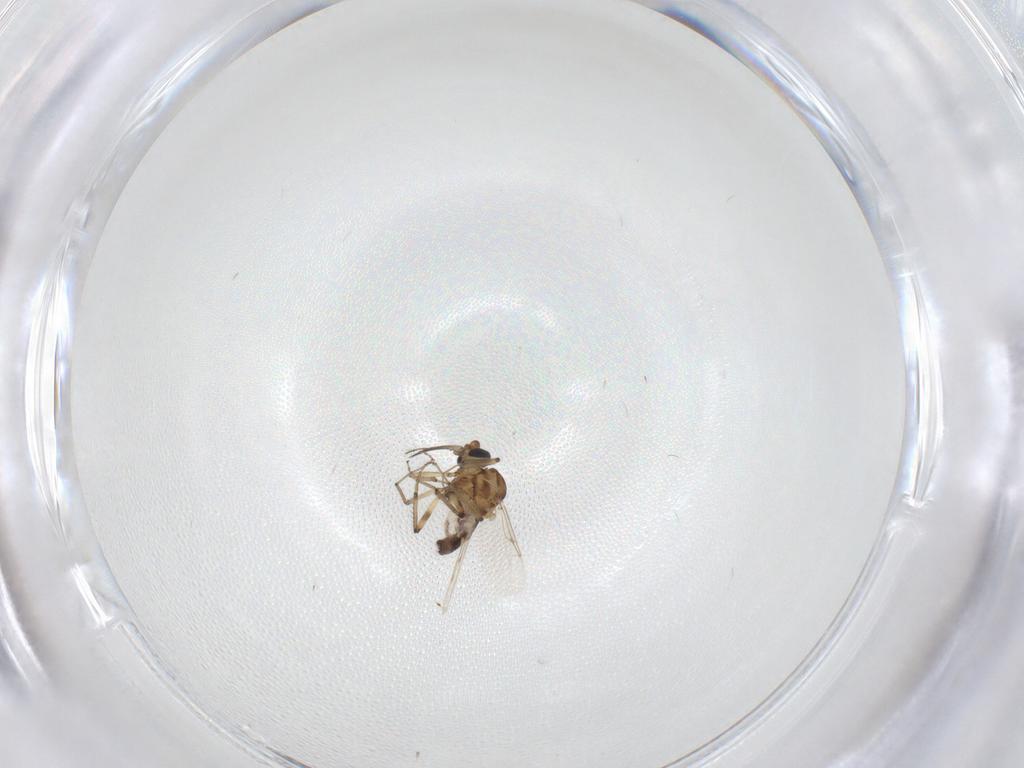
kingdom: Animalia
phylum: Arthropoda
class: Insecta
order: Diptera
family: Ceratopogonidae
